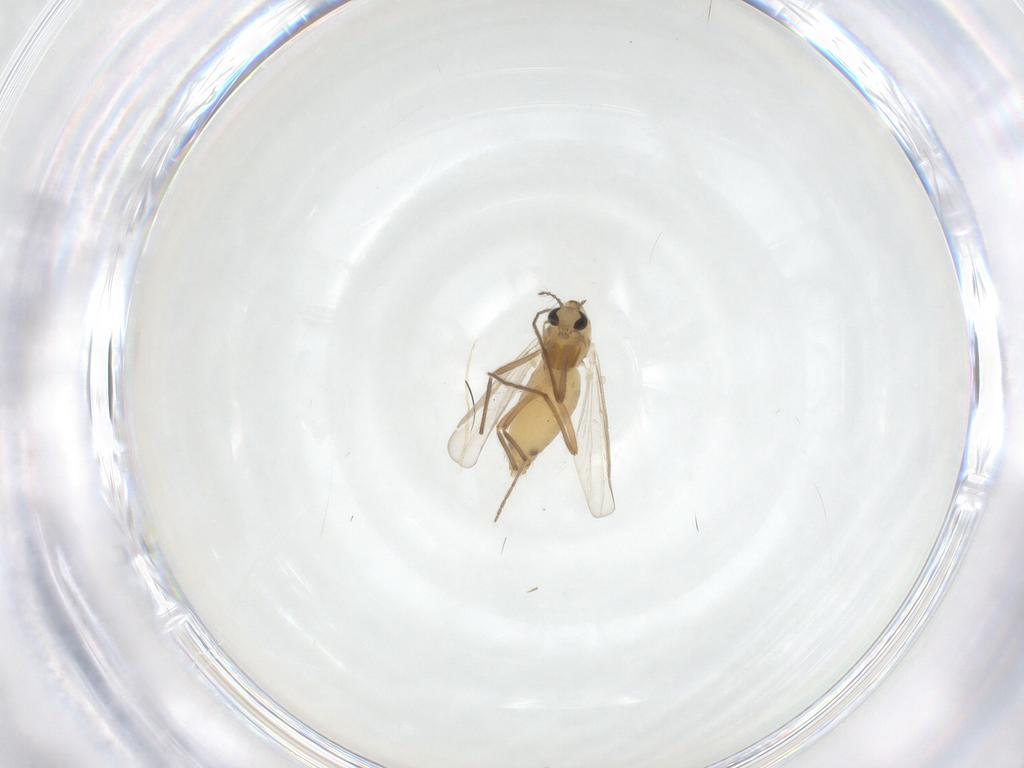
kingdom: Animalia
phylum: Arthropoda
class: Insecta
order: Diptera
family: Chironomidae
